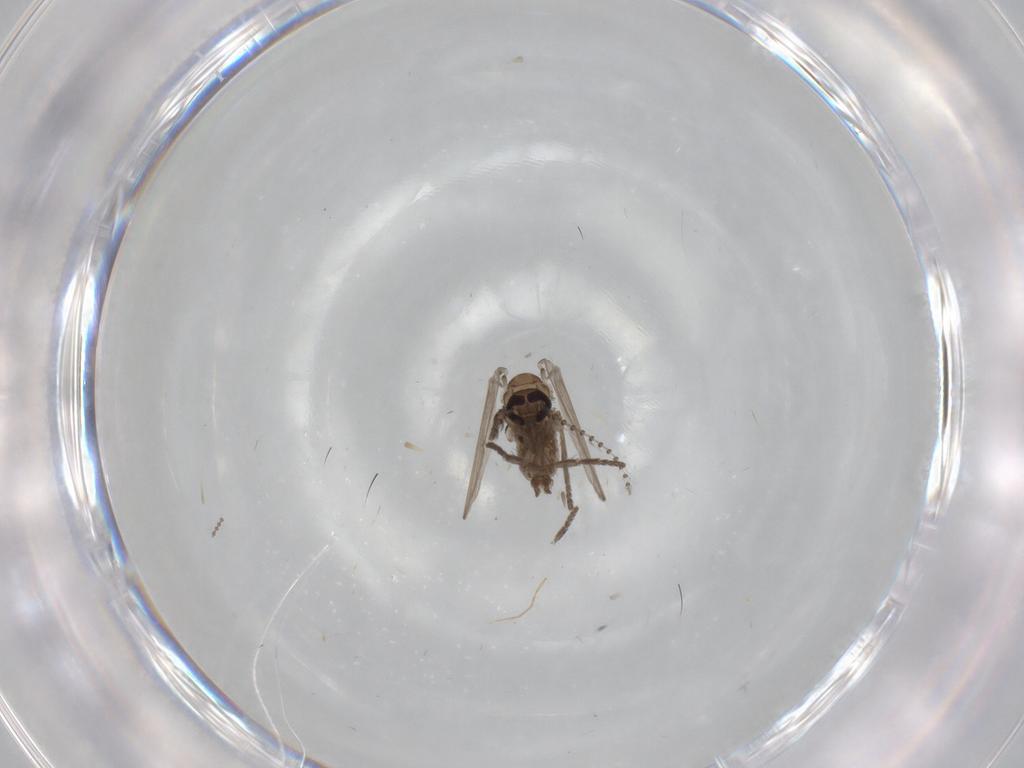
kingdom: Animalia
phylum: Arthropoda
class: Insecta
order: Diptera
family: Psychodidae
